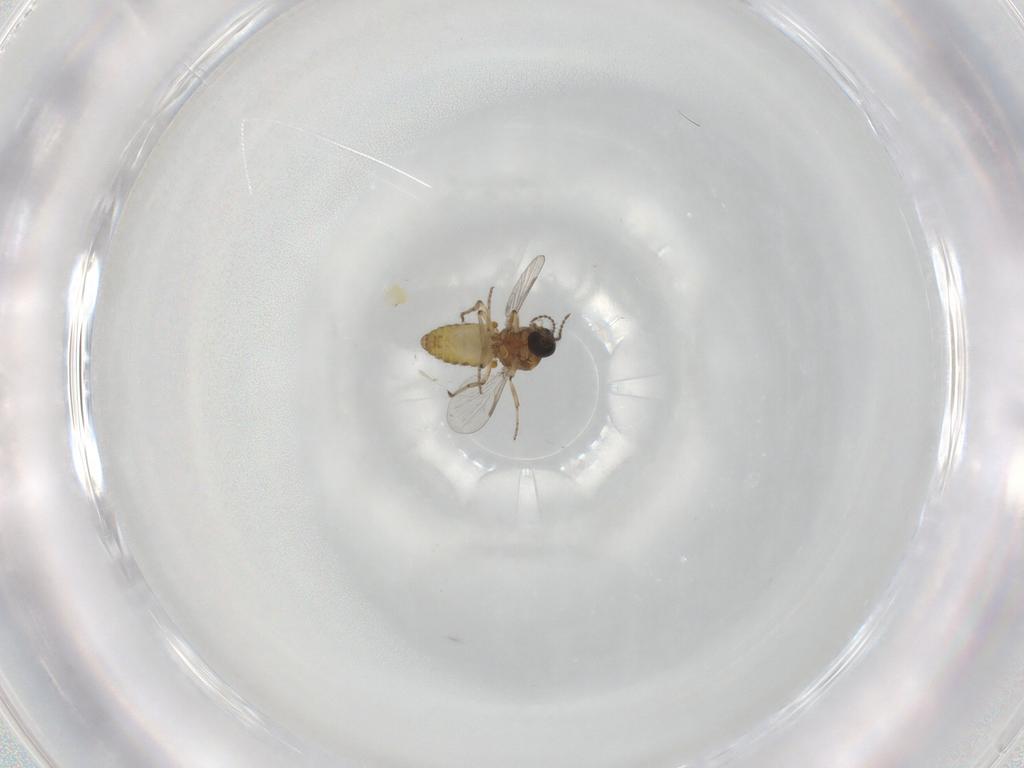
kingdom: Animalia
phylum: Arthropoda
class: Insecta
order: Diptera
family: Ceratopogonidae
